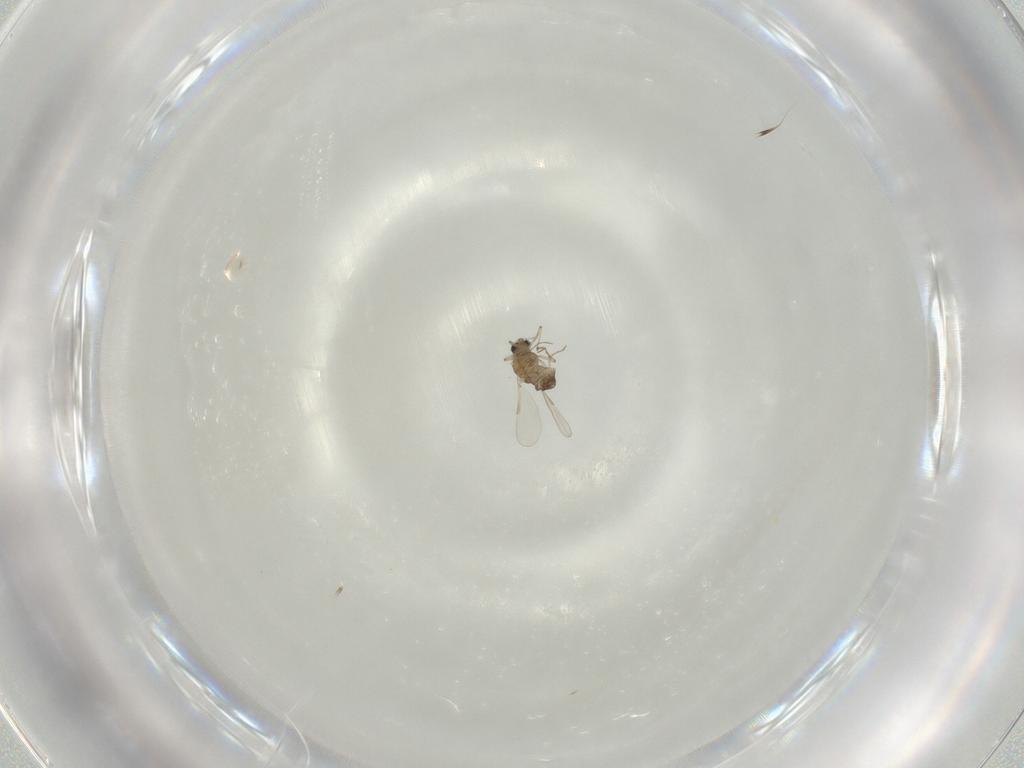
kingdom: Animalia
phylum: Arthropoda
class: Insecta
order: Diptera
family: Chironomidae
